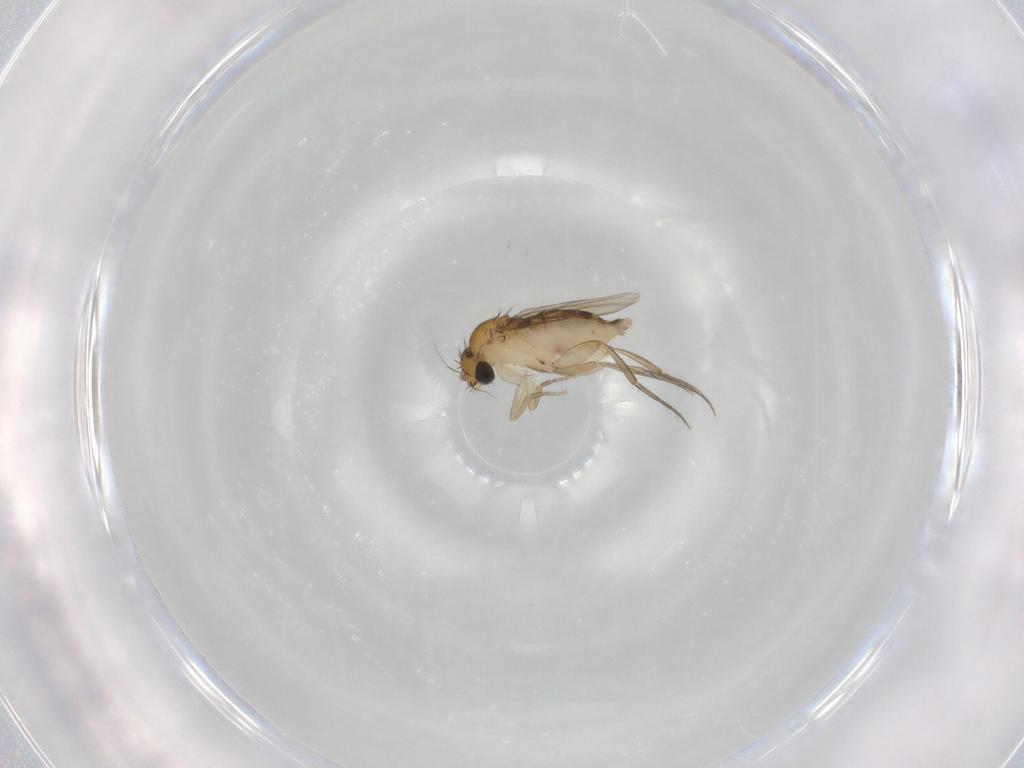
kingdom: Animalia
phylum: Arthropoda
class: Insecta
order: Diptera
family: Phoridae
